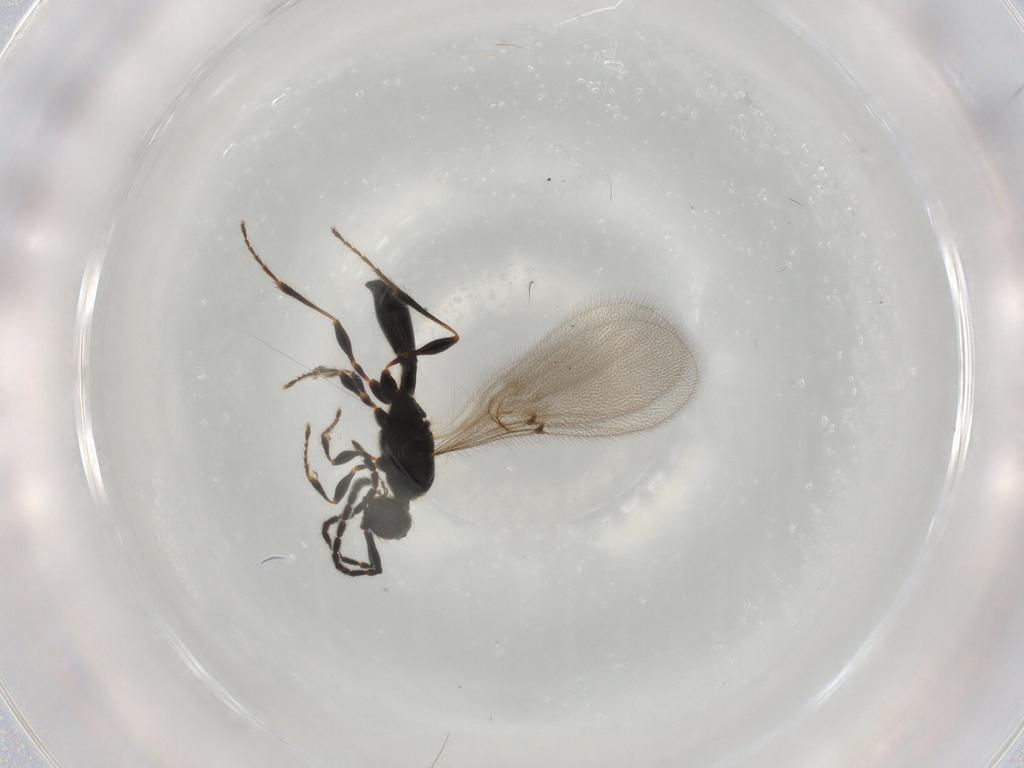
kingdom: Animalia
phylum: Arthropoda
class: Insecta
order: Hymenoptera
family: Diapriidae
